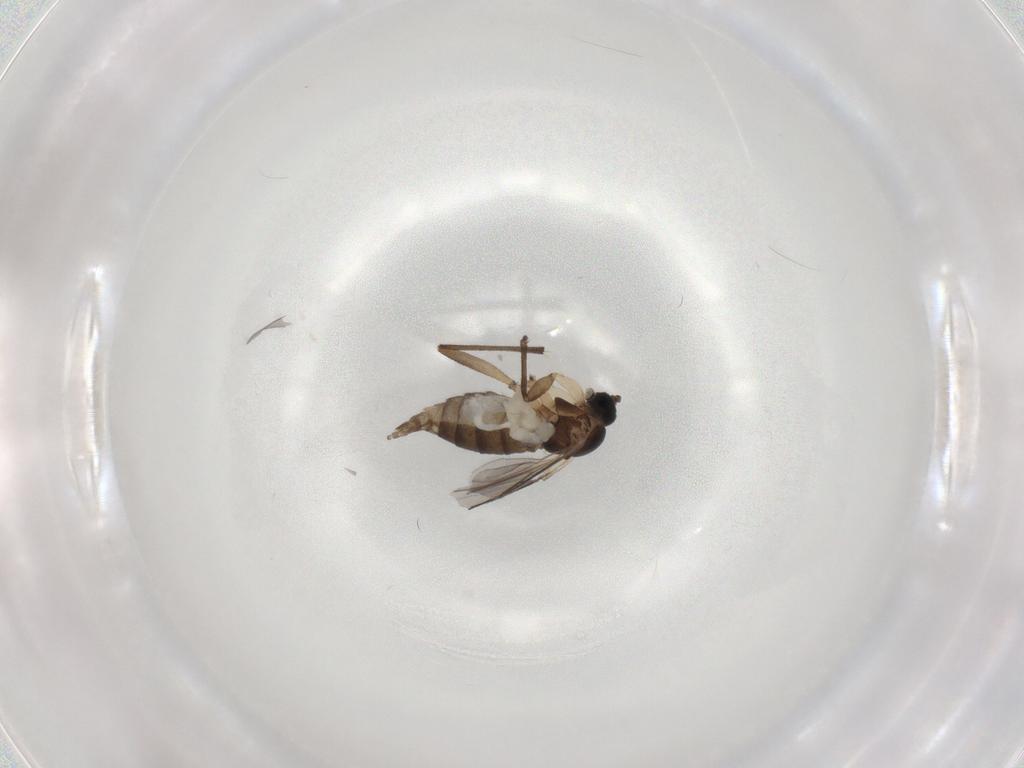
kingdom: Animalia
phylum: Arthropoda
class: Insecta
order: Diptera
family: Sciaridae
